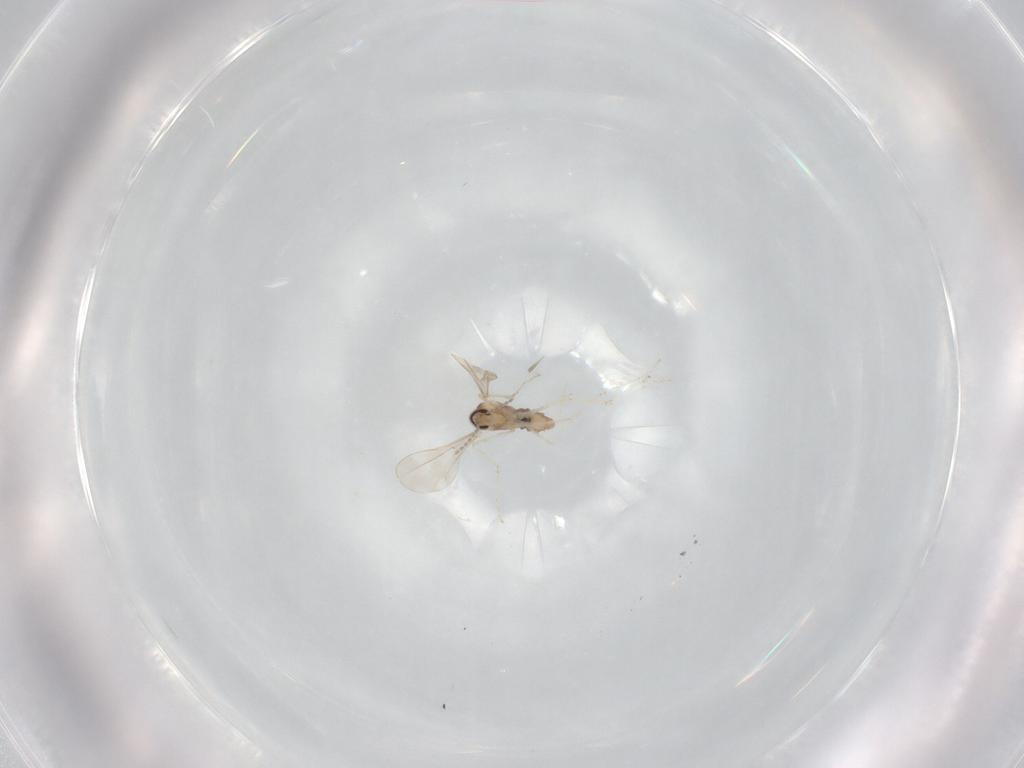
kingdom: Animalia
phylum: Arthropoda
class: Insecta
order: Diptera
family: Cecidomyiidae
